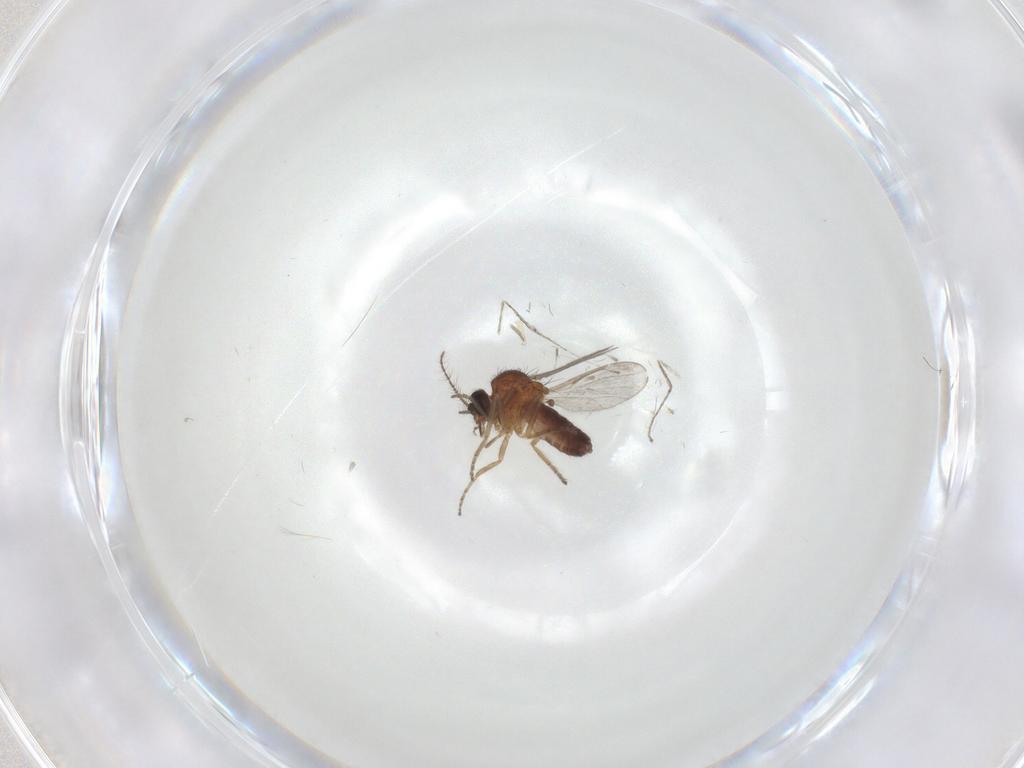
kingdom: Animalia
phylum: Arthropoda
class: Insecta
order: Diptera
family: Ceratopogonidae
